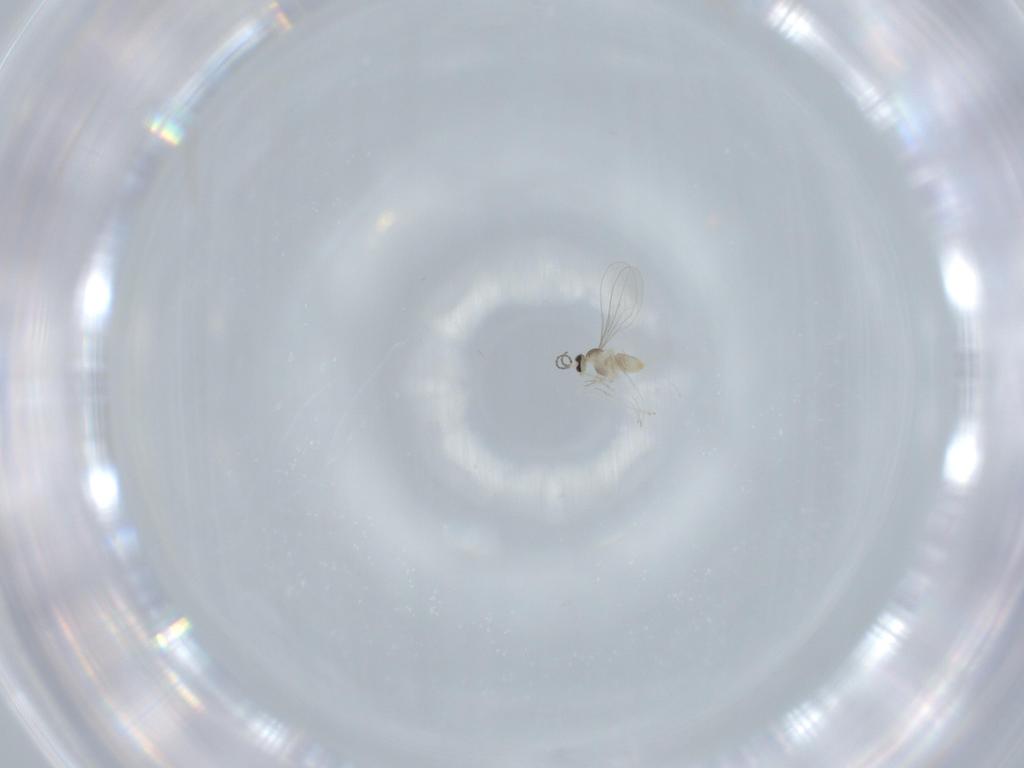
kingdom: Animalia
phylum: Arthropoda
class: Insecta
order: Diptera
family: Cecidomyiidae
